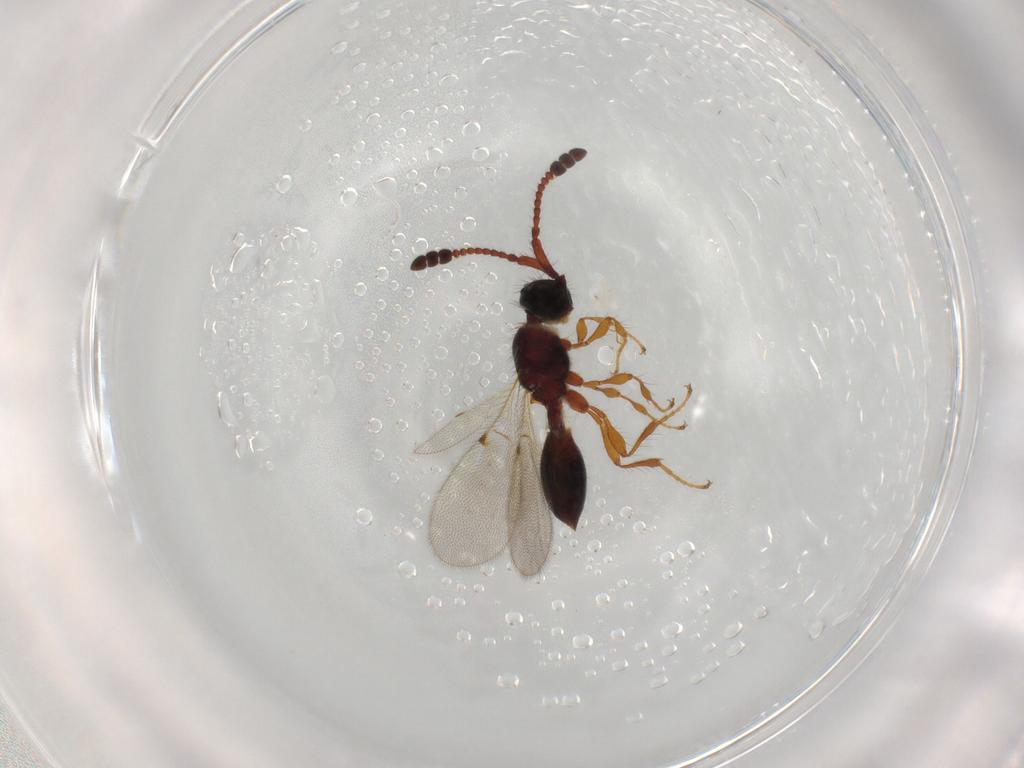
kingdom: Animalia
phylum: Arthropoda
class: Insecta
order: Hymenoptera
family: Diapriidae
